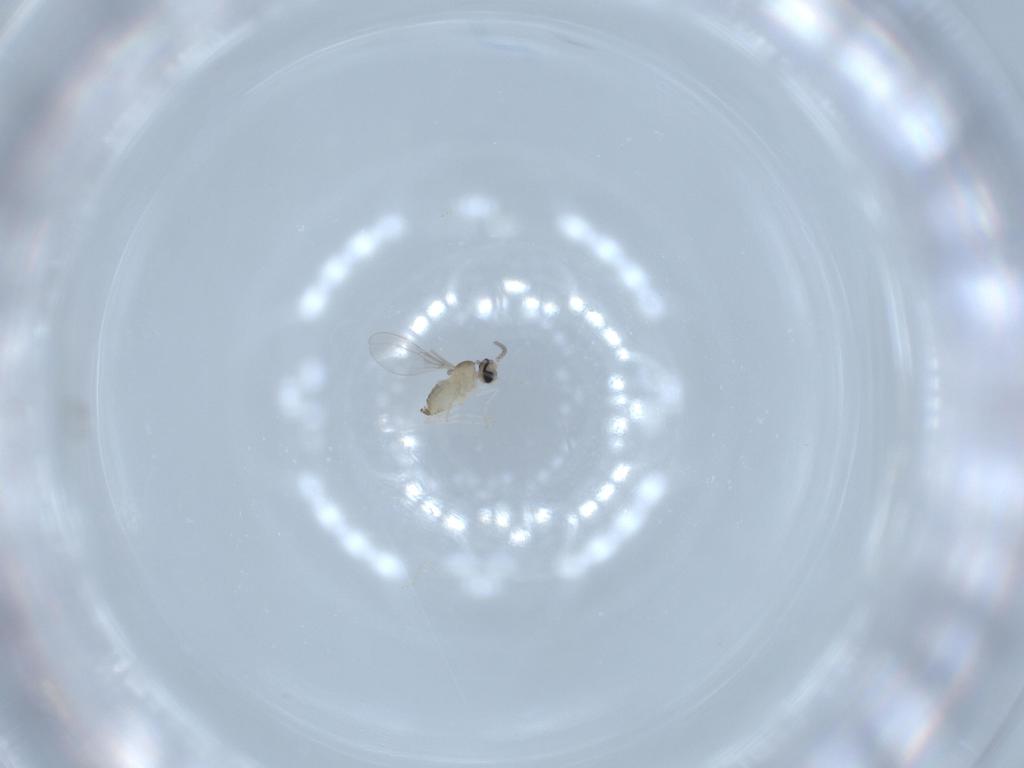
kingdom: Animalia
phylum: Arthropoda
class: Insecta
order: Diptera
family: Cecidomyiidae
